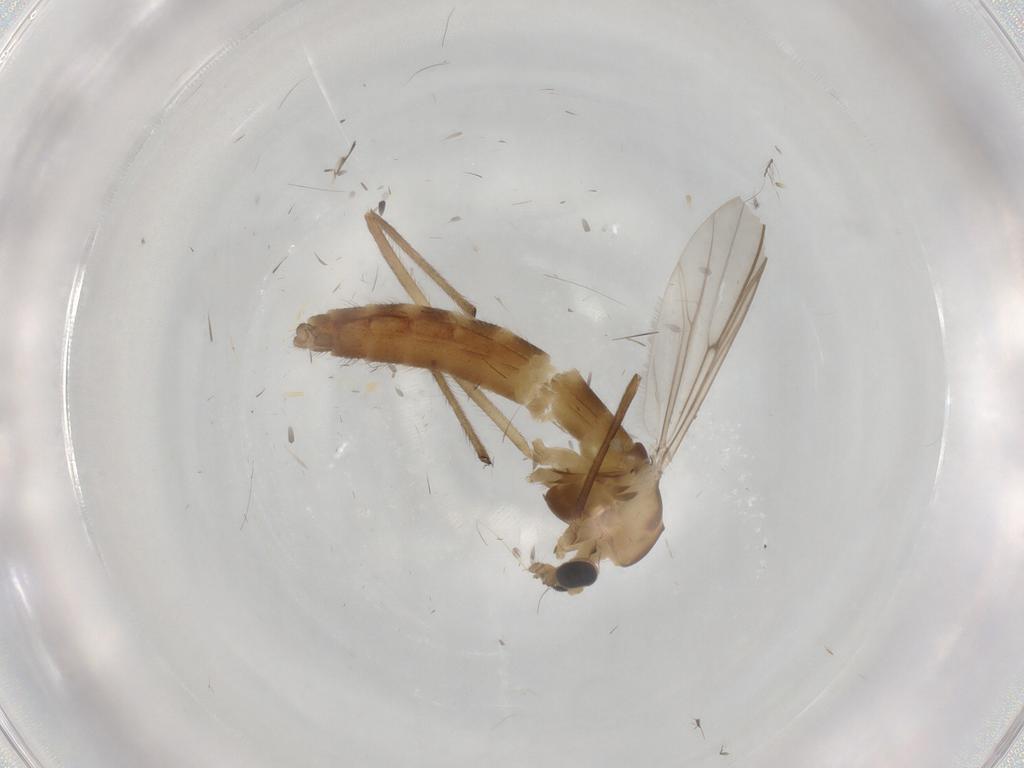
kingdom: Animalia
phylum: Arthropoda
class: Insecta
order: Diptera
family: Chironomidae
